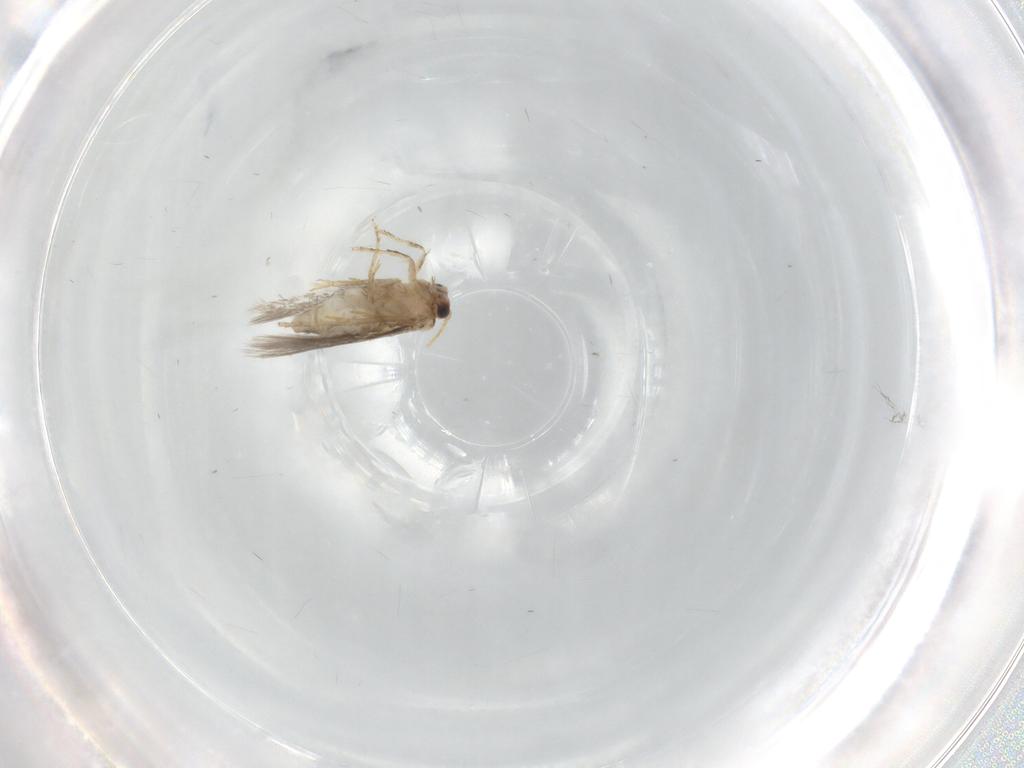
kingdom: Animalia
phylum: Arthropoda
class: Insecta
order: Lepidoptera
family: Nepticulidae
